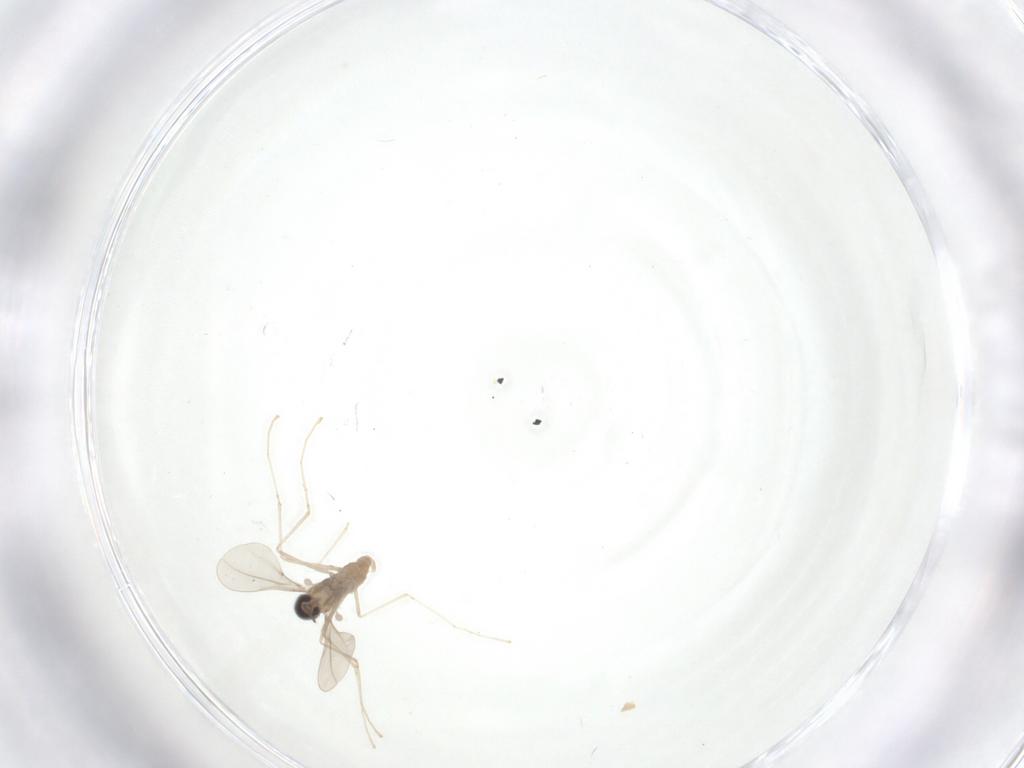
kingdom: Animalia
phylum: Arthropoda
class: Insecta
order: Diptera
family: Cecidomyiidae
